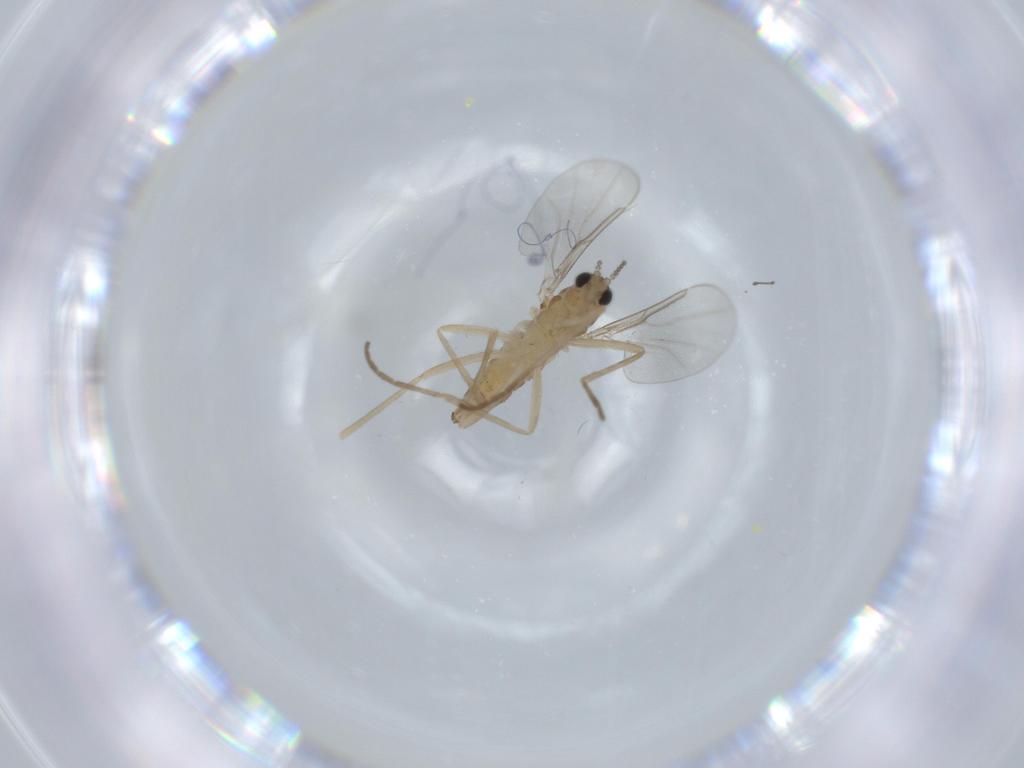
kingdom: Animalia
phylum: Arthropoda
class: Insecta
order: Diptera
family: Cecidomyiidae
